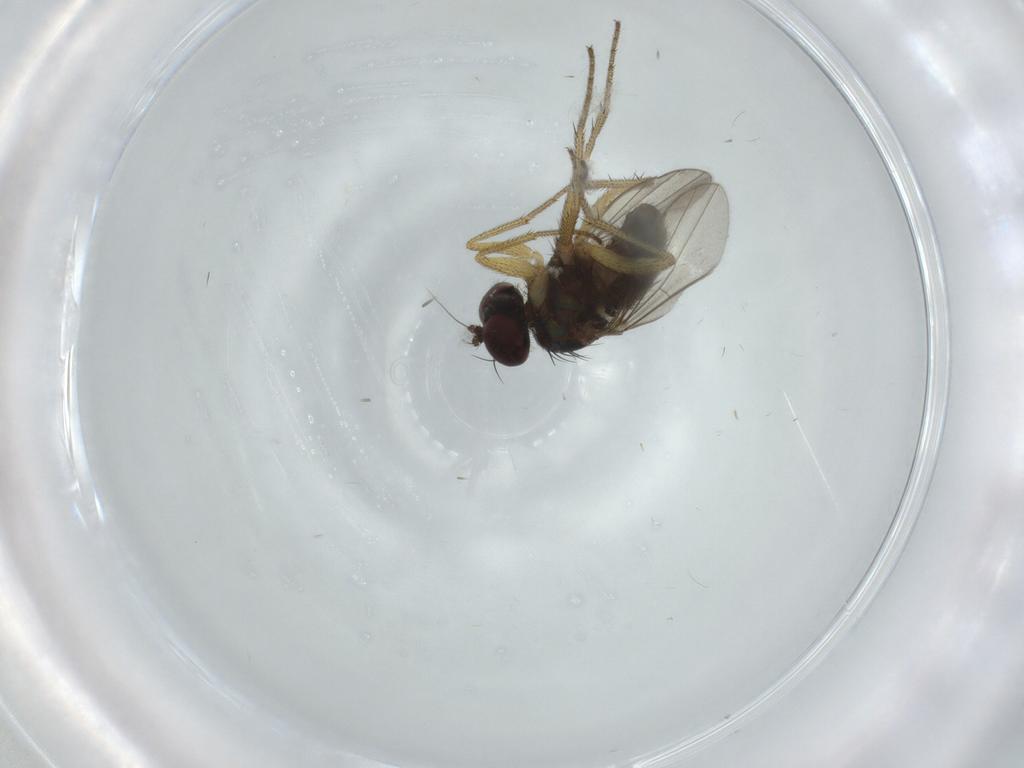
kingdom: Animalia
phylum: Arthropoda
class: Insecta
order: Diptera
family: Dolichopodidae
